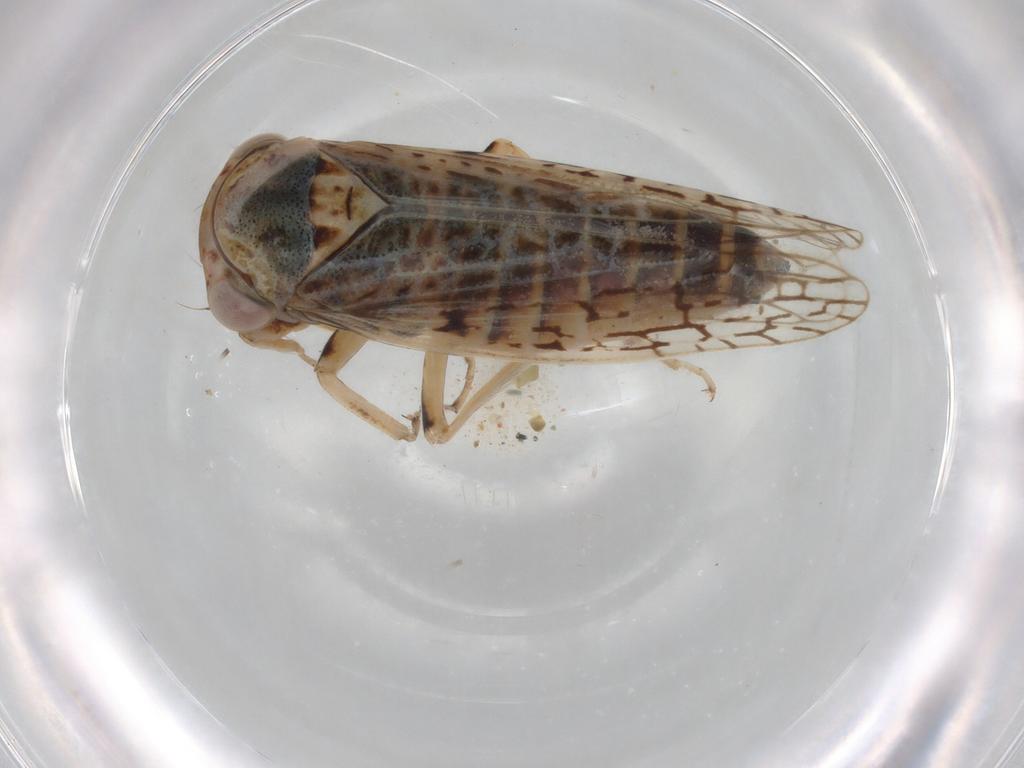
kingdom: Animalia
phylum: Arthropoda
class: Insecta
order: Hemiptera
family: Cicadellidae
